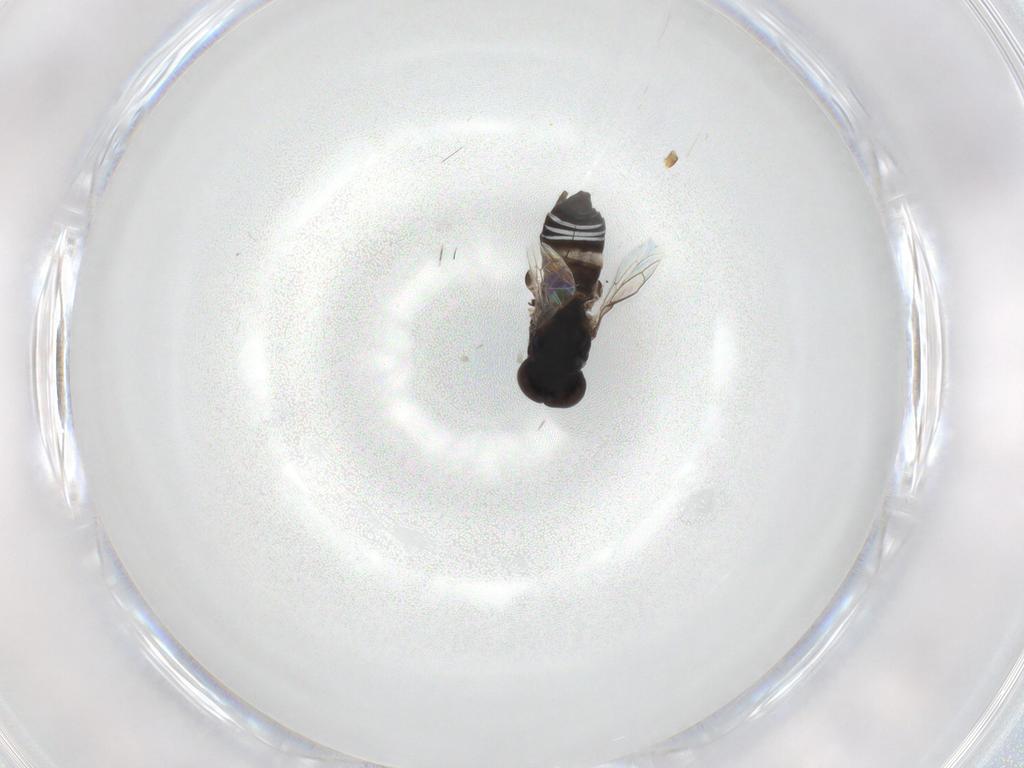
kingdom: Animalia
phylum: Arthropoda
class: Insecta
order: Diptera
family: Scenopinidae
